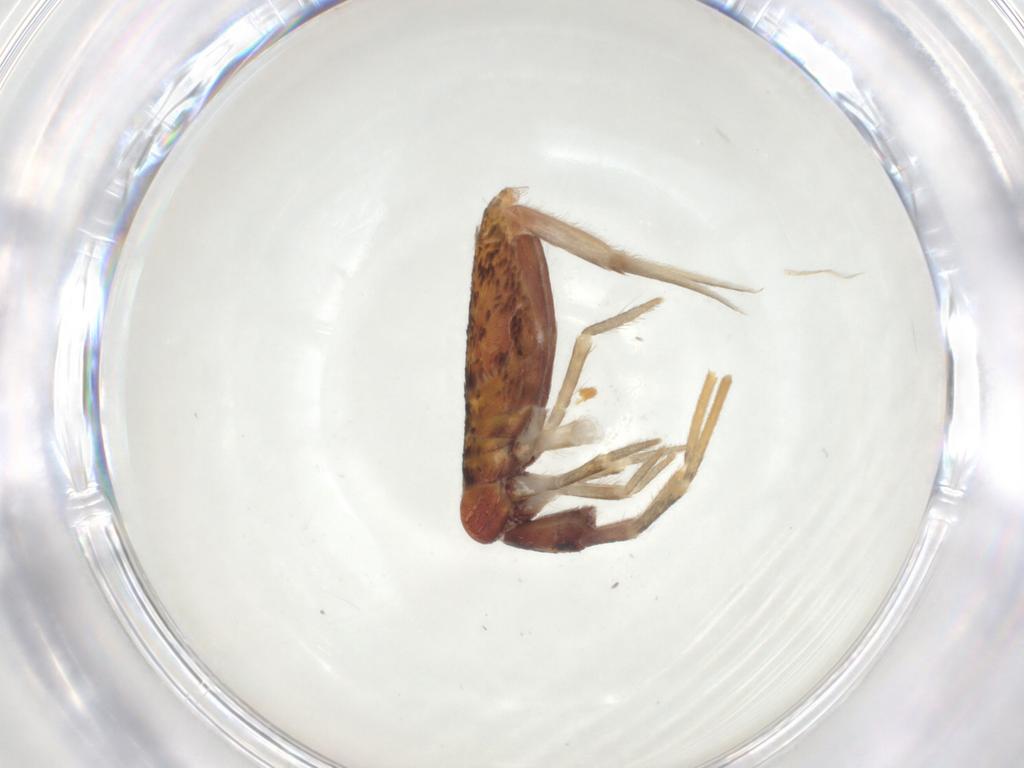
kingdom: Animalia
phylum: Arthropoda
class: Collembola
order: Entomobryomorpha
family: Entomobryidae
